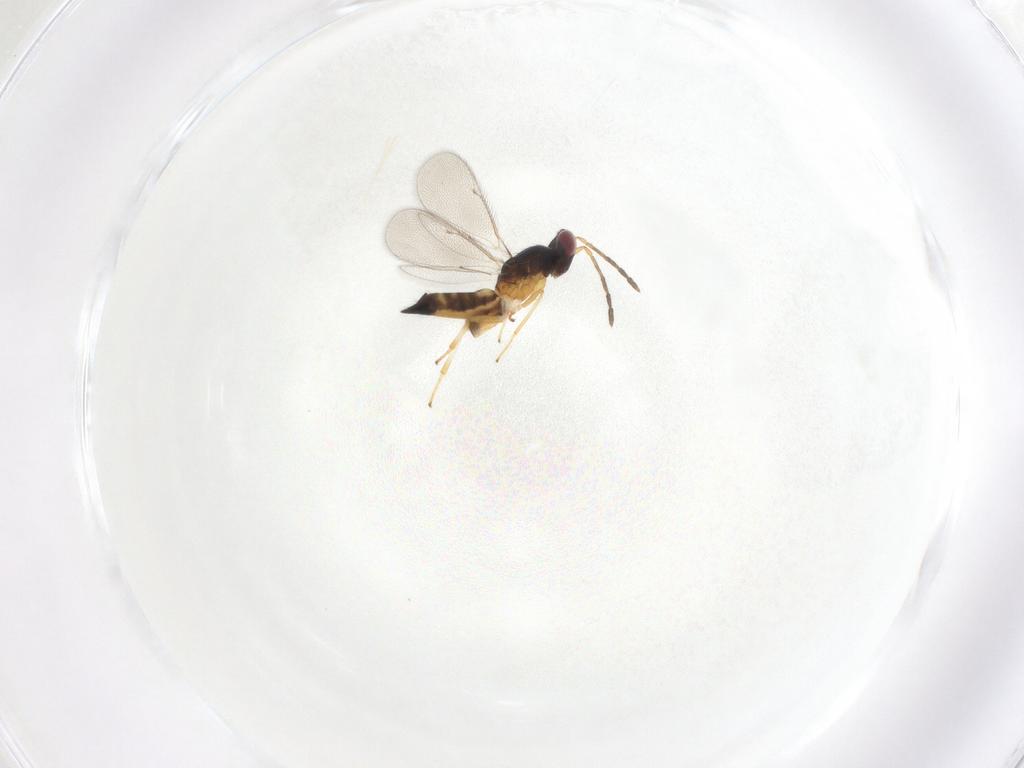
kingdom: Animalia
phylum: Arthropoda
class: Insecta
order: Hymenoptera
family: Eulophidae
